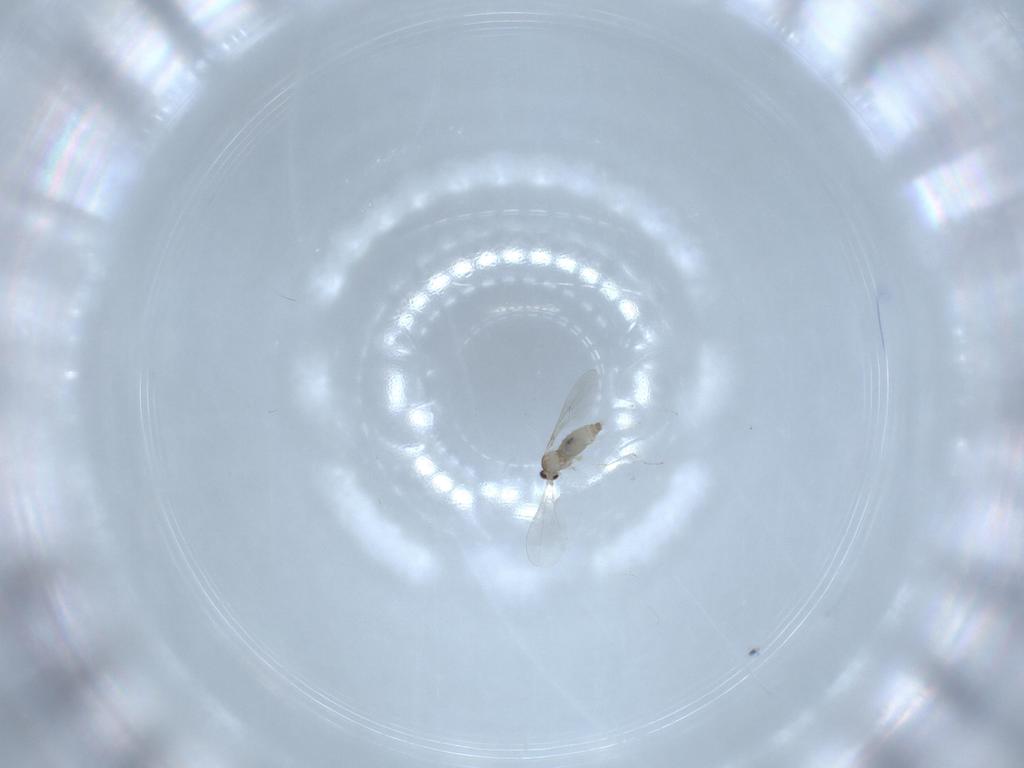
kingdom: Animalia
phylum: Arthropoda
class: Insecta
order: Diptera
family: Cecidomyiidae
